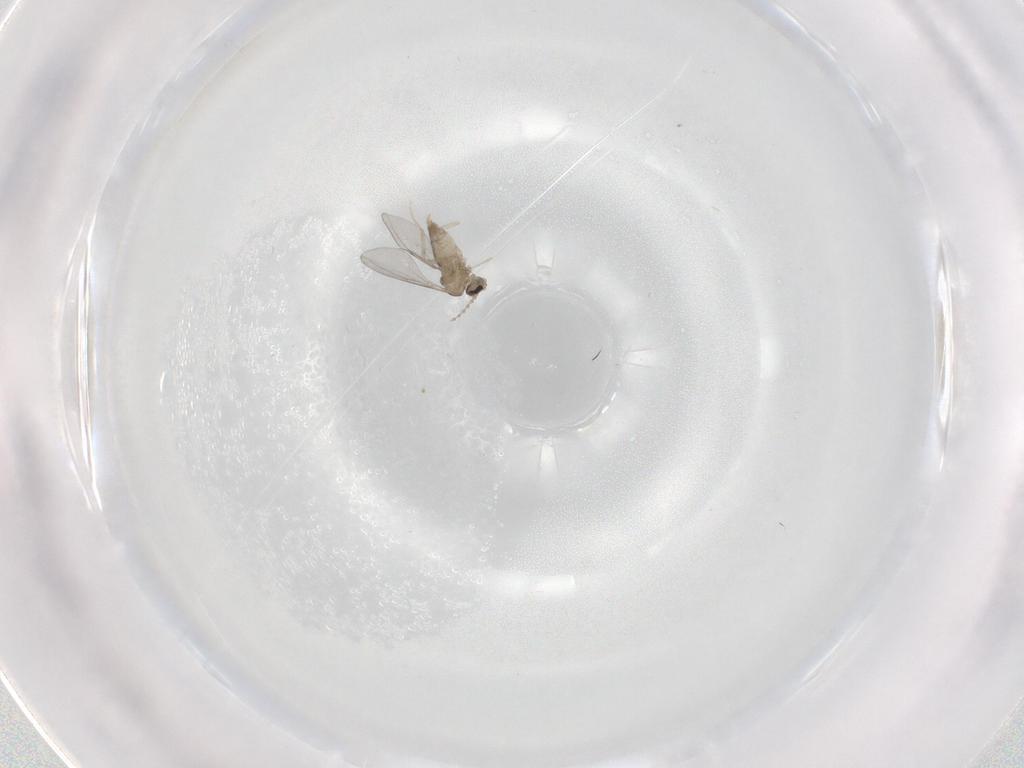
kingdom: Animalia
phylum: Arthropoda
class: Insecta
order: Diptera
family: Cecidomyiidae
